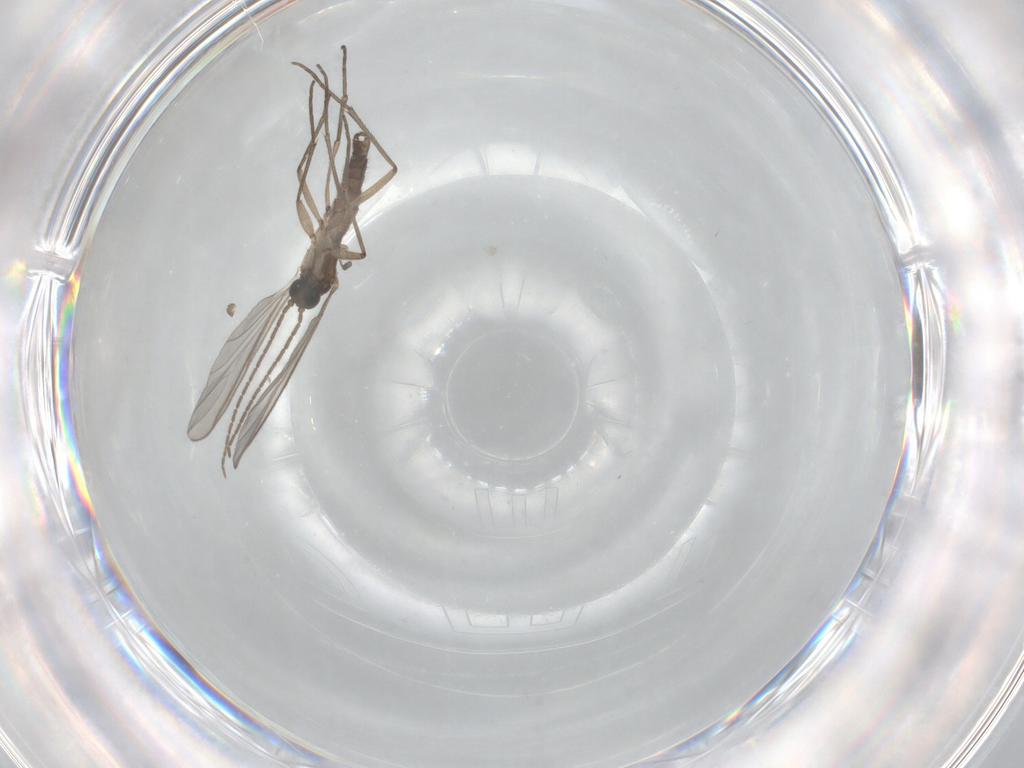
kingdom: Animalia
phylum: Arthropoda
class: Insecta
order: Diptera
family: Sciaridae
